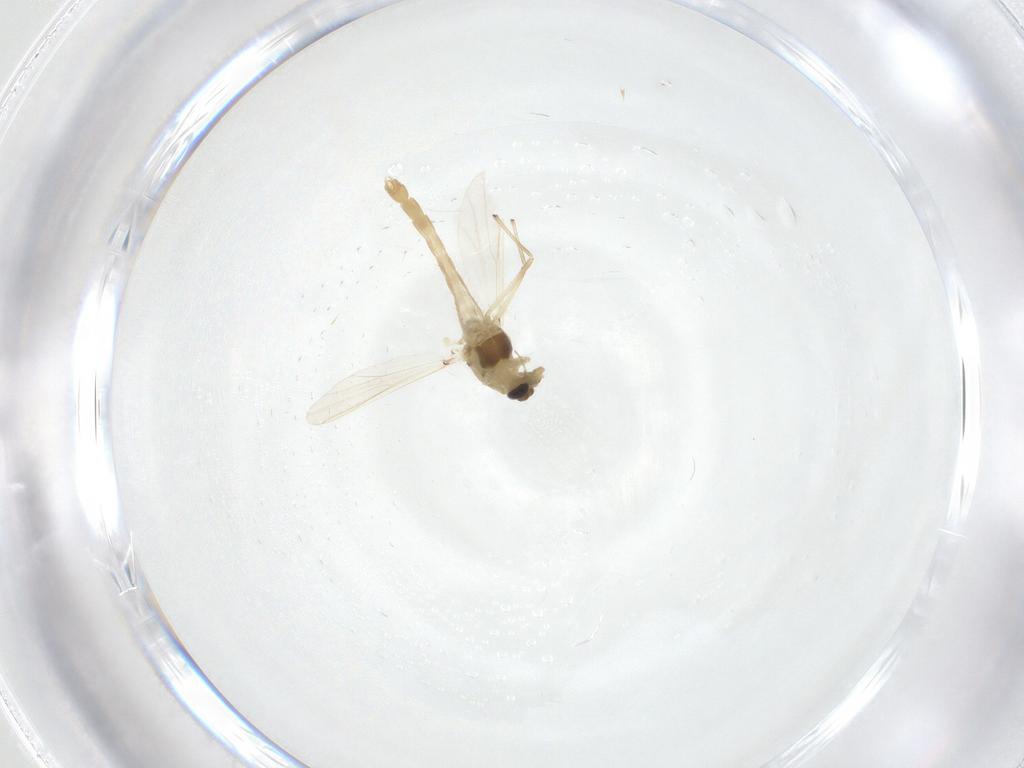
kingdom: Animalia
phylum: Arthropoda
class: Insecta
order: Diptera
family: Chironomidae
